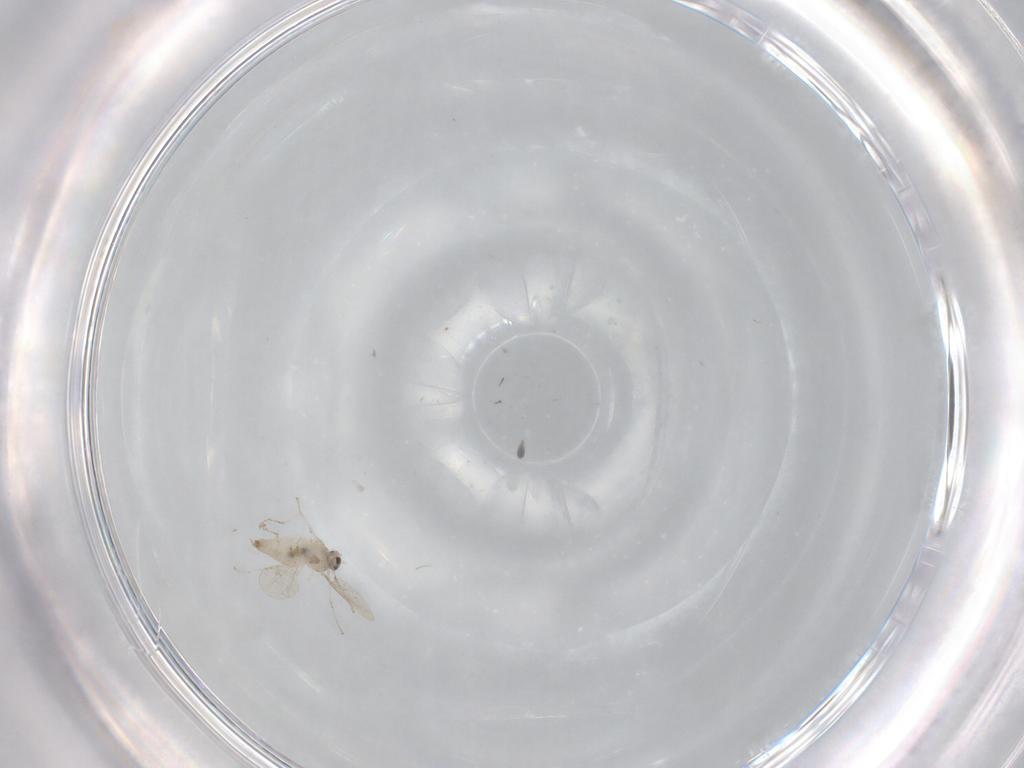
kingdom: Animalia
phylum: Arthropoda
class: Insecta
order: Diptera
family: Cecidomyiidae
